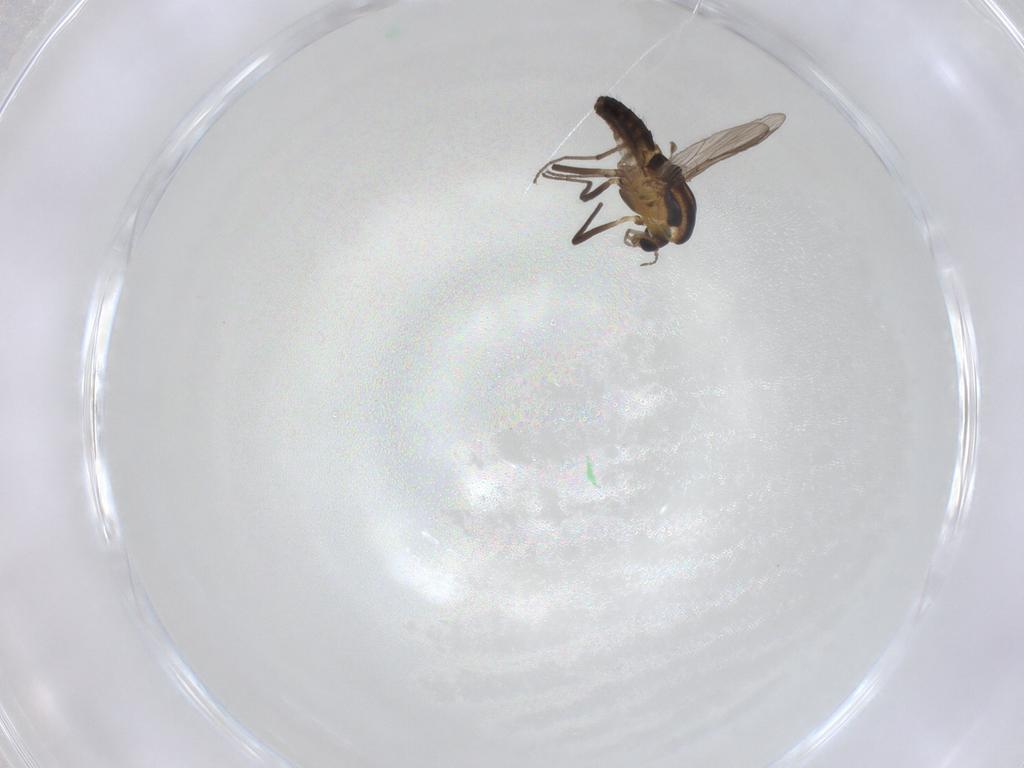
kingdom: Animalia
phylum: Arthropoda
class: Insecta
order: Diptera
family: Chironomidae
